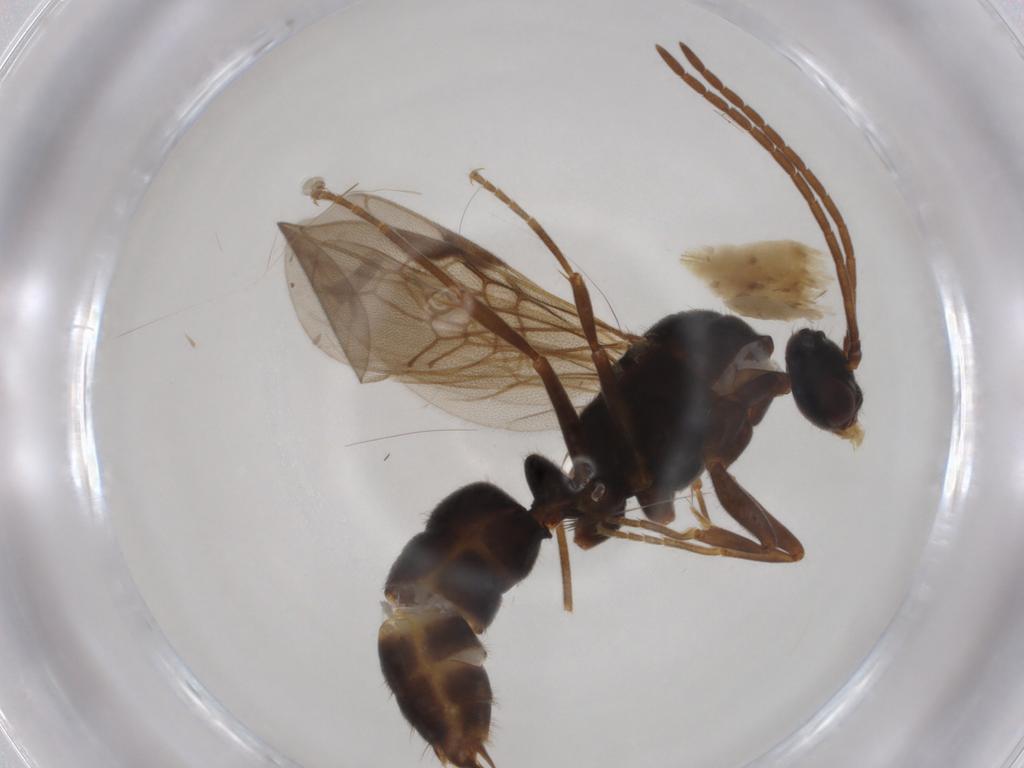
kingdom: Animalia
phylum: Arthropoda
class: Insecta
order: Hymenoptera
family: Formicidae
